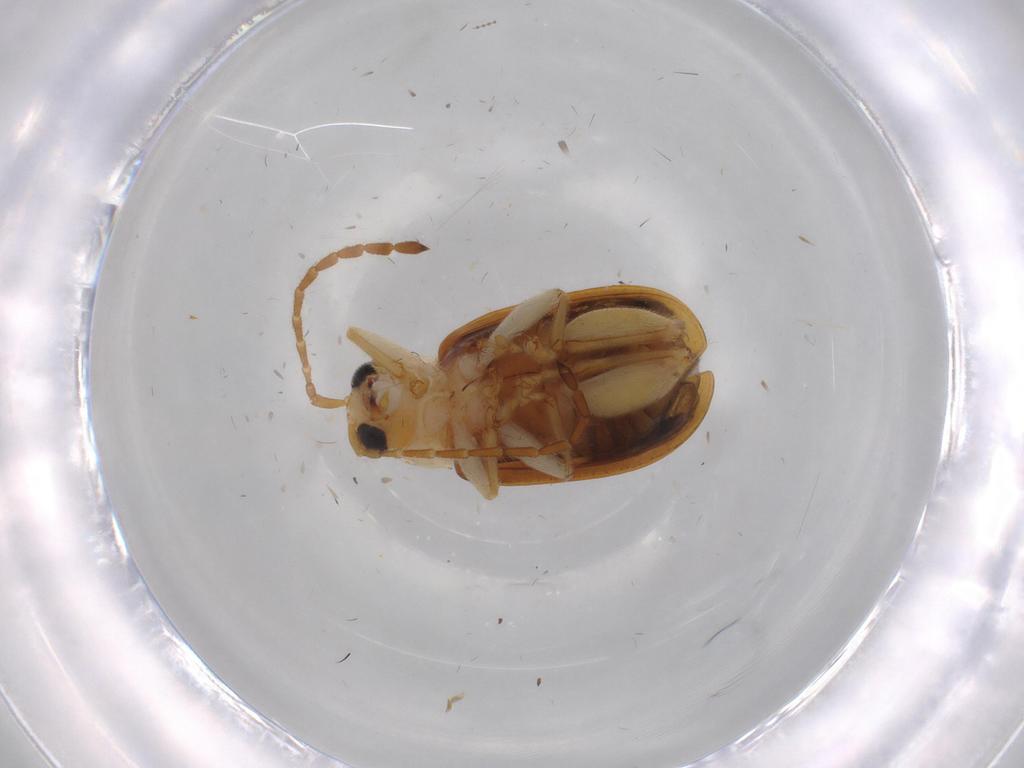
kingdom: Animalia
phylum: Arthropoda
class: Insecta
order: Coleoptera
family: Chrysomelidae
